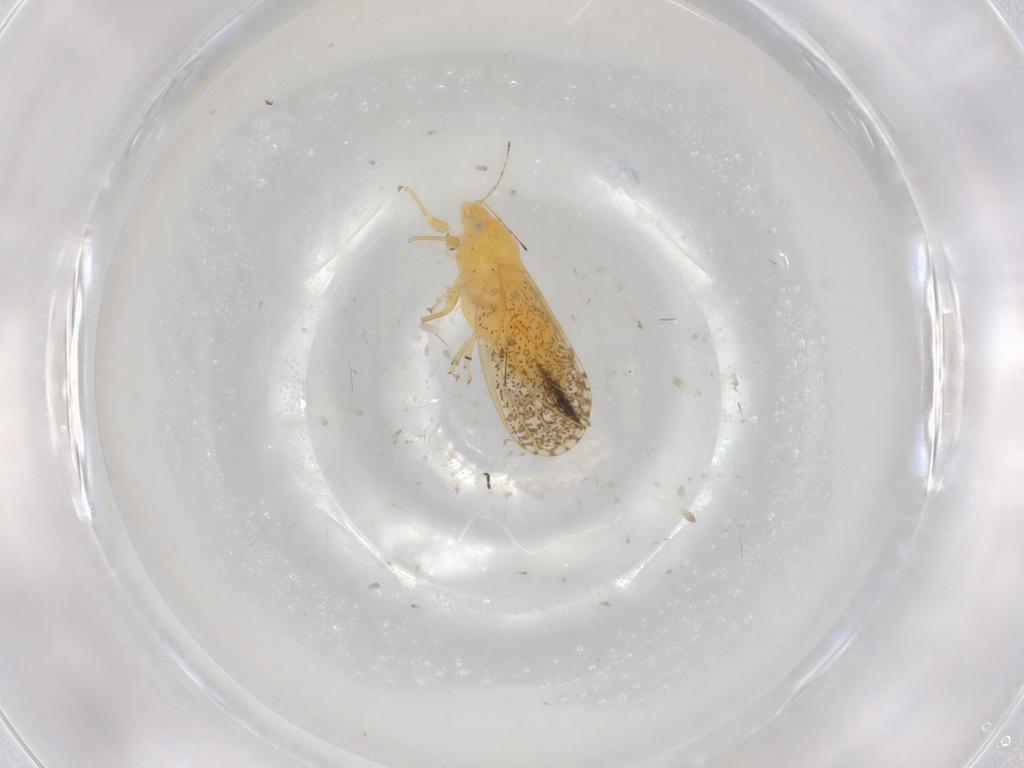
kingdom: Animalia
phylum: Arthropoda
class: Insecta
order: Hemiptera
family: Psyllidae
